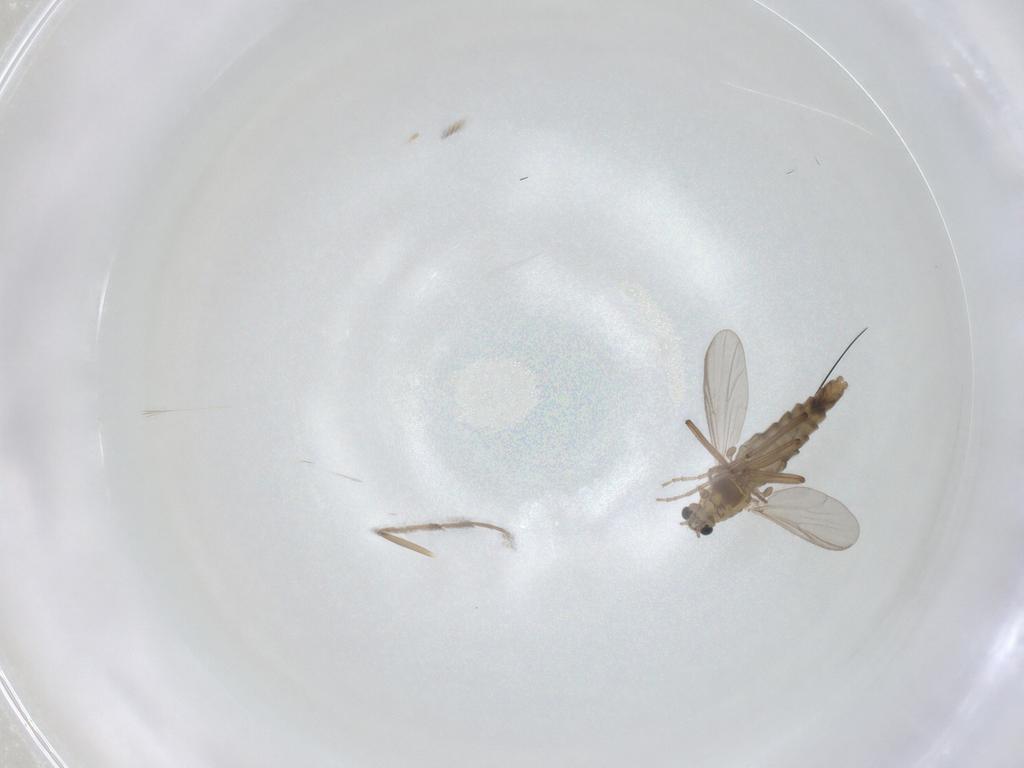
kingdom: Animalia
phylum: Arthropoda
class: Insecta
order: Diptera
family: Chironomidae
